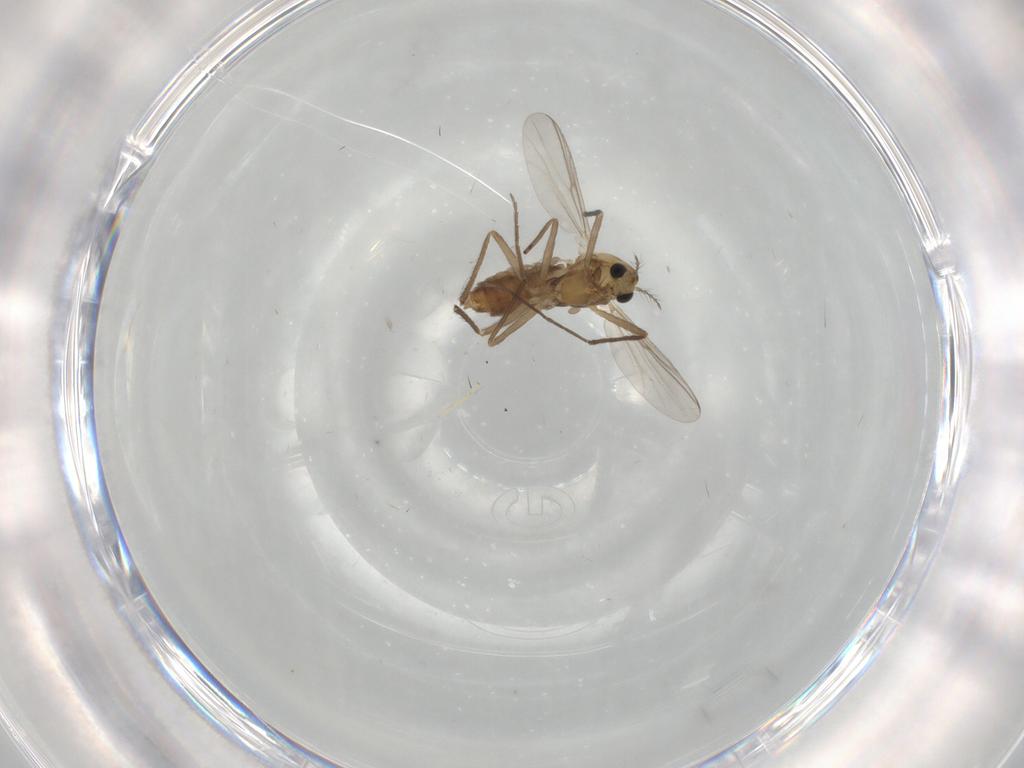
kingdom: Animalia
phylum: Arthropoda
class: Insecta
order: Diptera
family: Chironomidae
